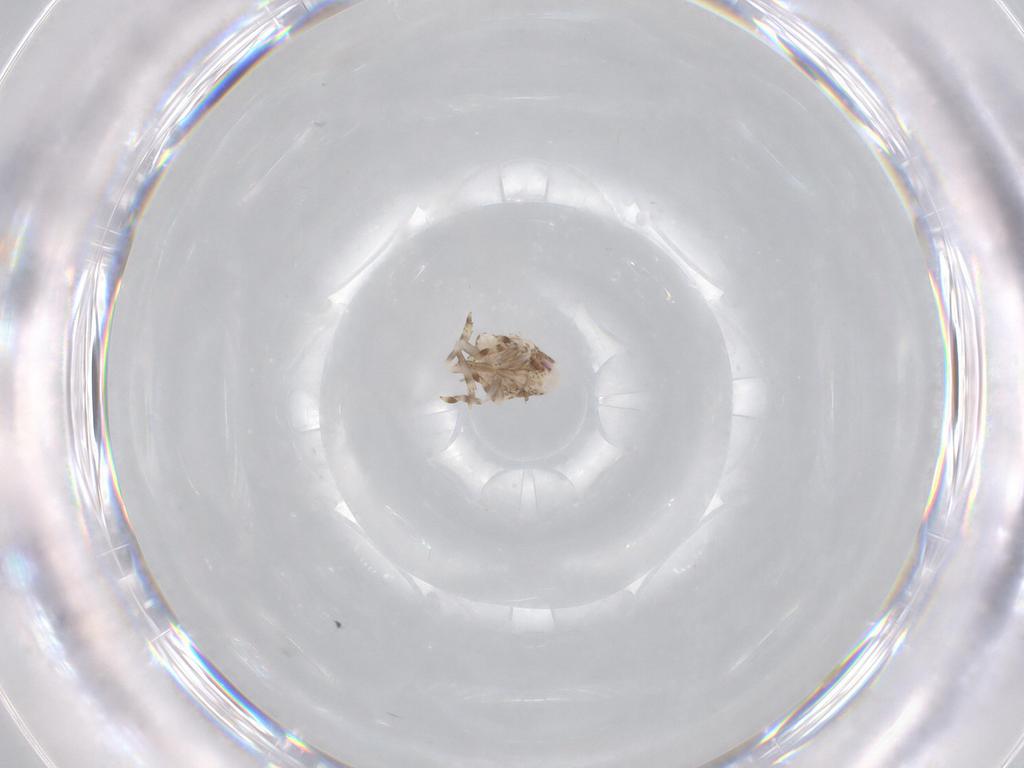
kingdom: Animalia
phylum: Arthropoda
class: Insecta
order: Hemiptera
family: Acanaloniidae
